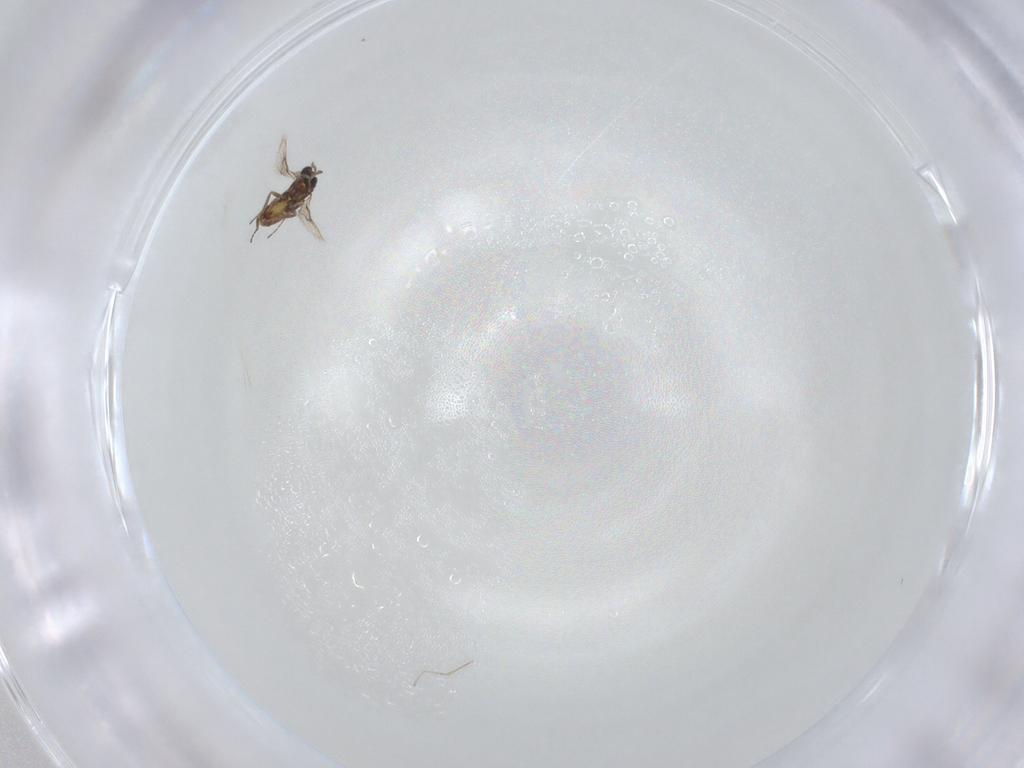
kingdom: Animalia
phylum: Arthropoda
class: Insecta
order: Hymenoptera
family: Trichogrammatidae
